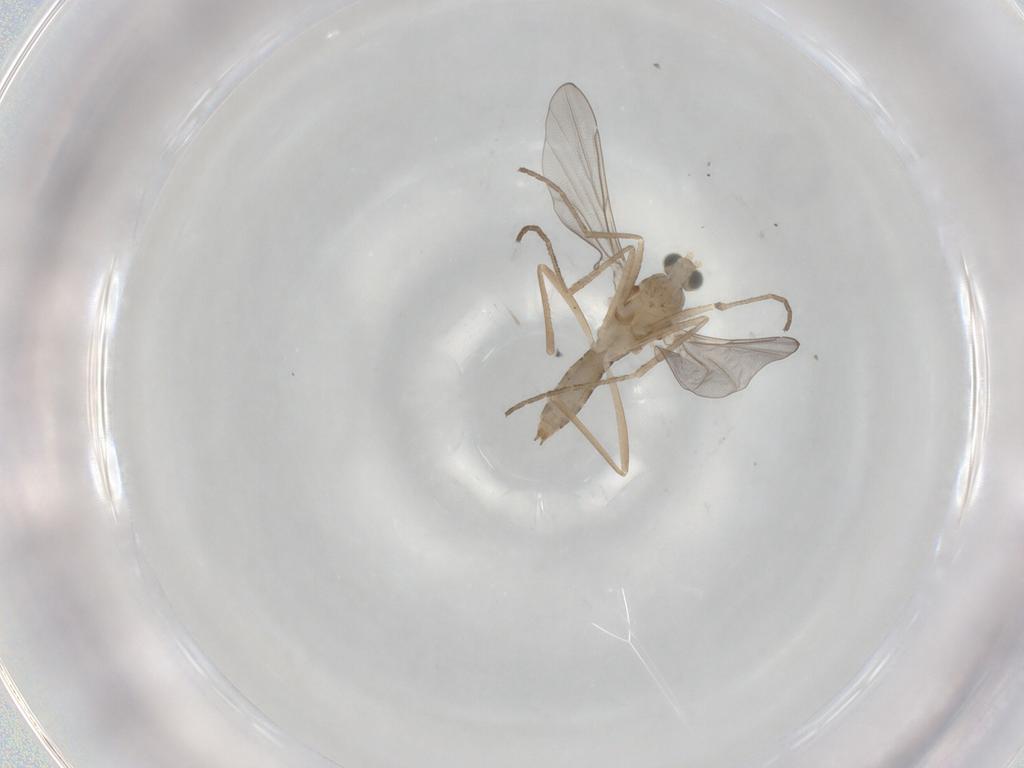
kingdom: Animalia
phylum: Arthropoda
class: Insecta
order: Diptera
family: Cecidomyiidae
